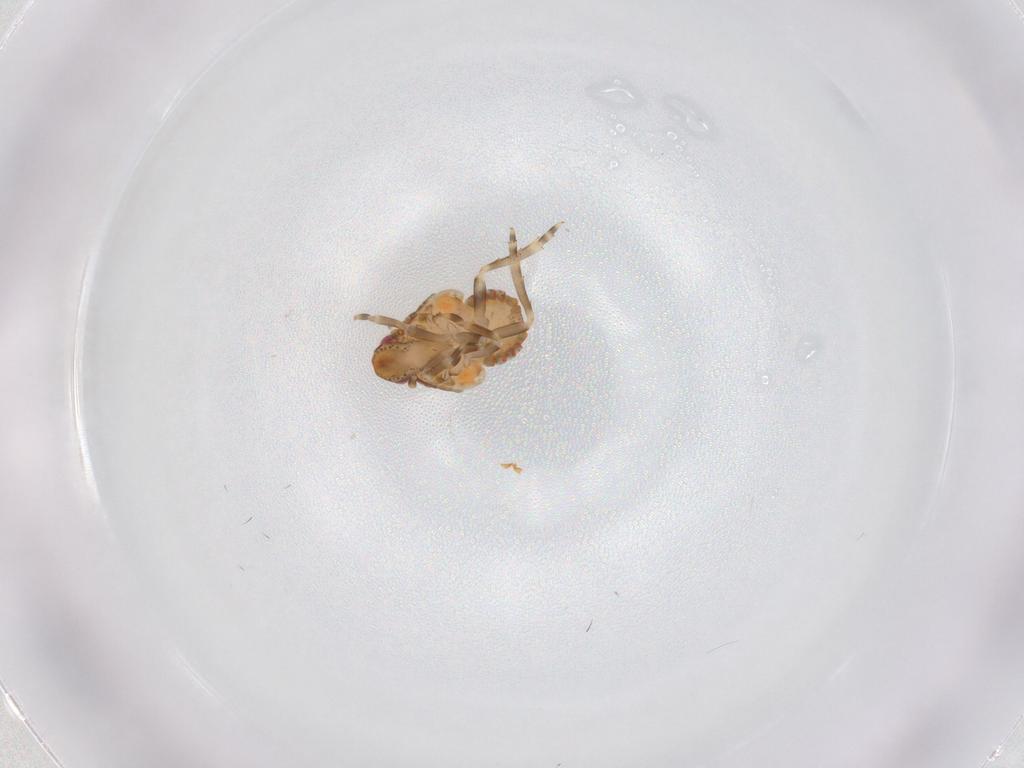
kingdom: Animalia
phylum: Arthropoda
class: Insecta
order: Hemiptera
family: Flatidae
